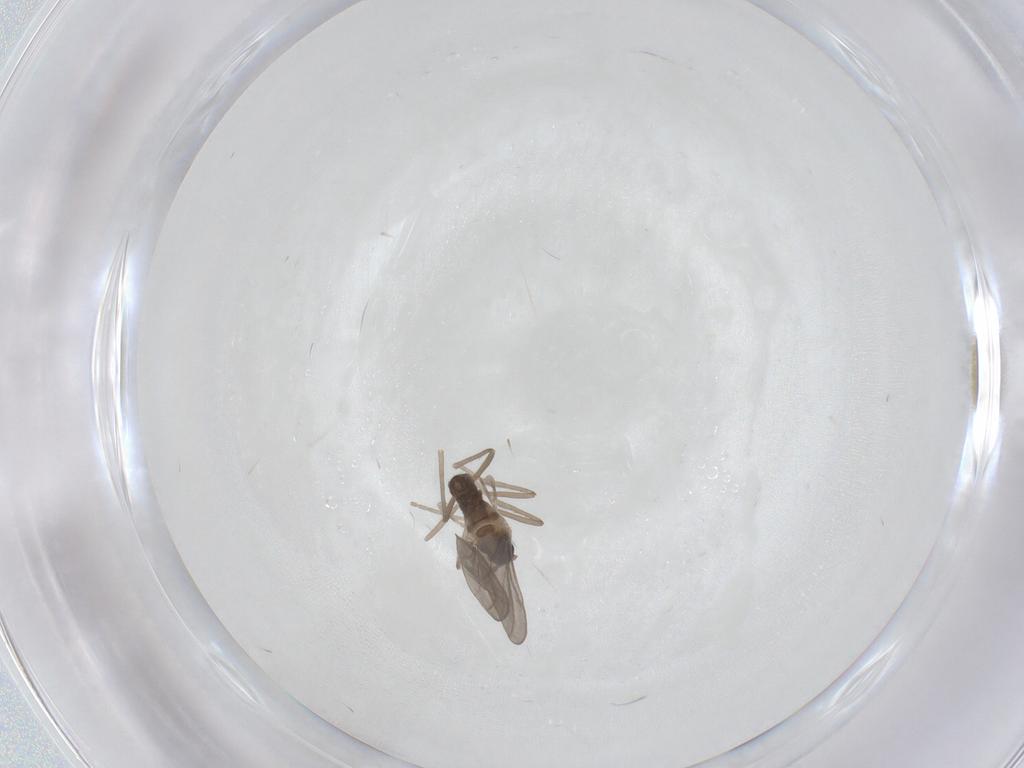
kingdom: Animalia
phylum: Arthropoda
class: Insecta
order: Diptera
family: Cecidomyiidae
